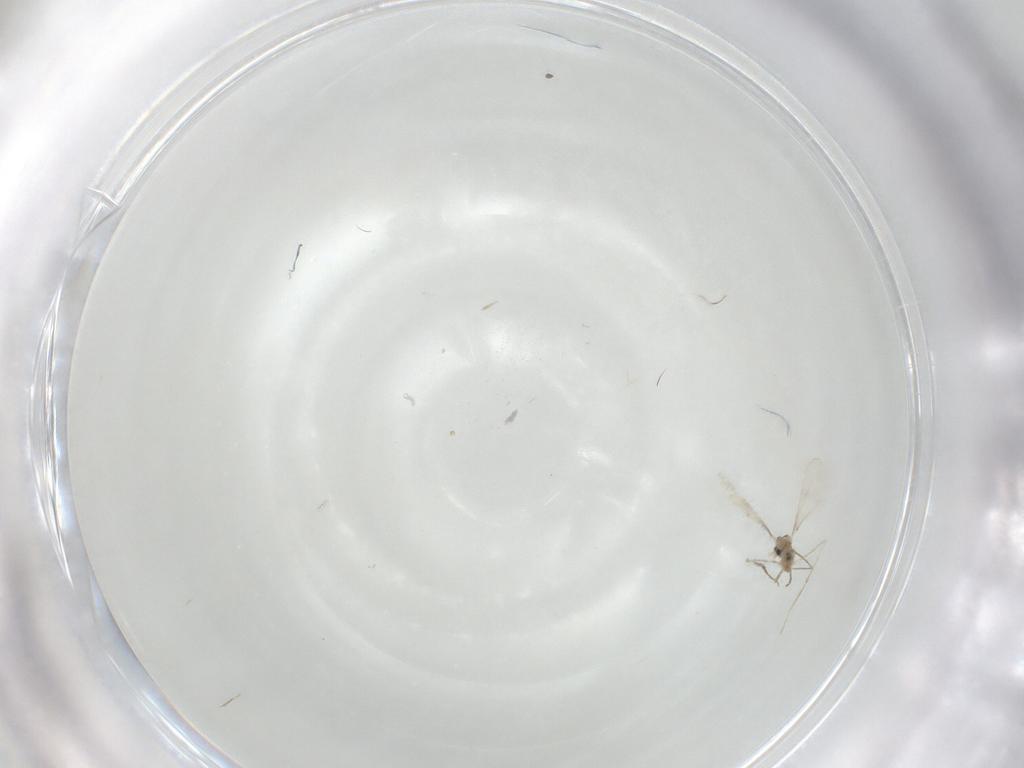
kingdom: Animalia
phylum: Arthropoda
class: Insecta
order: Diptera
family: Cecidomyiidae
